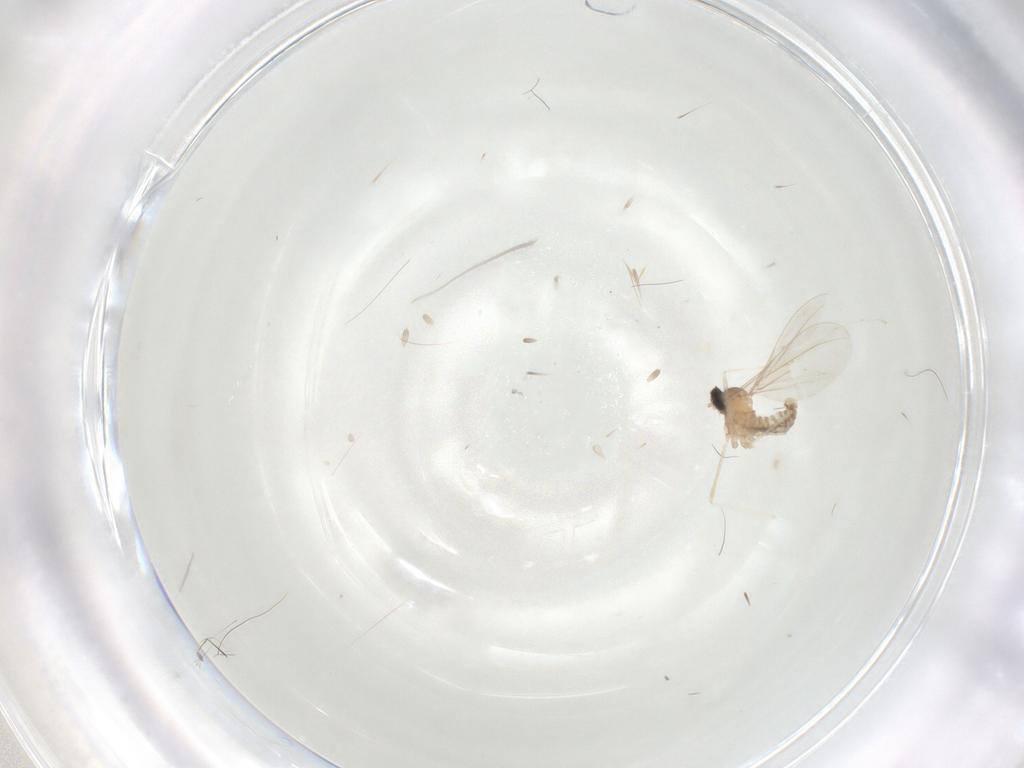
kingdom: Animalia
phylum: Arthropoda
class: Insecta
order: Diptera
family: Cecidomyiidae
